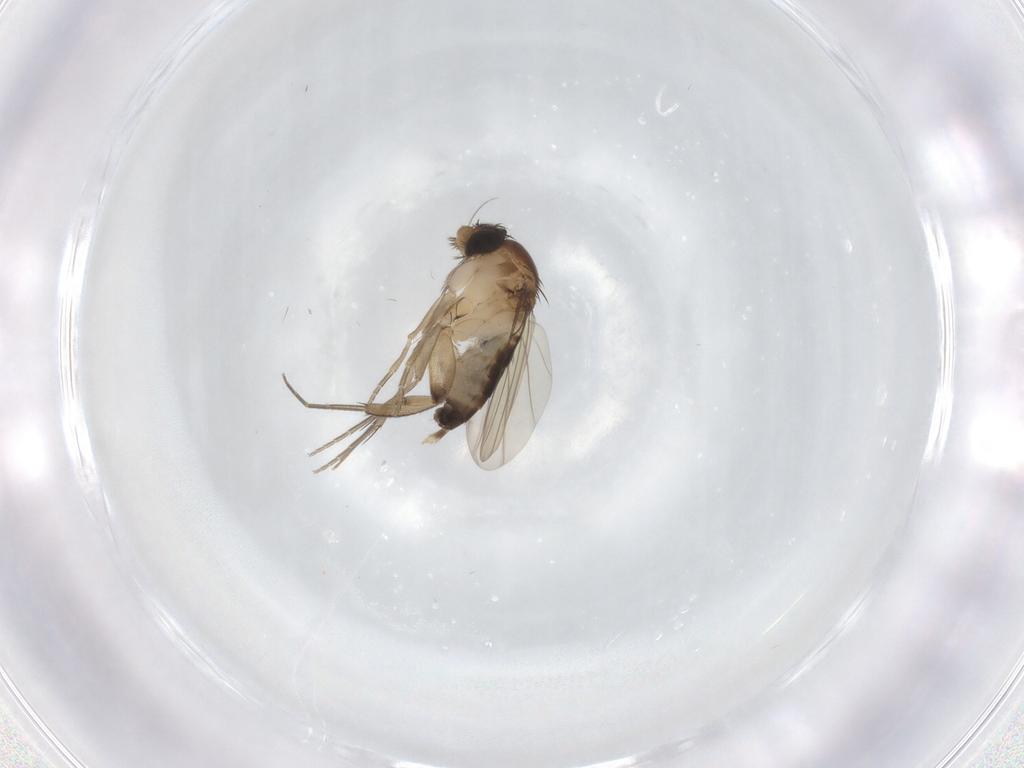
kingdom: Animalia
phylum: Arthropoda
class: Insecta
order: Diptera
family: Phoridae
